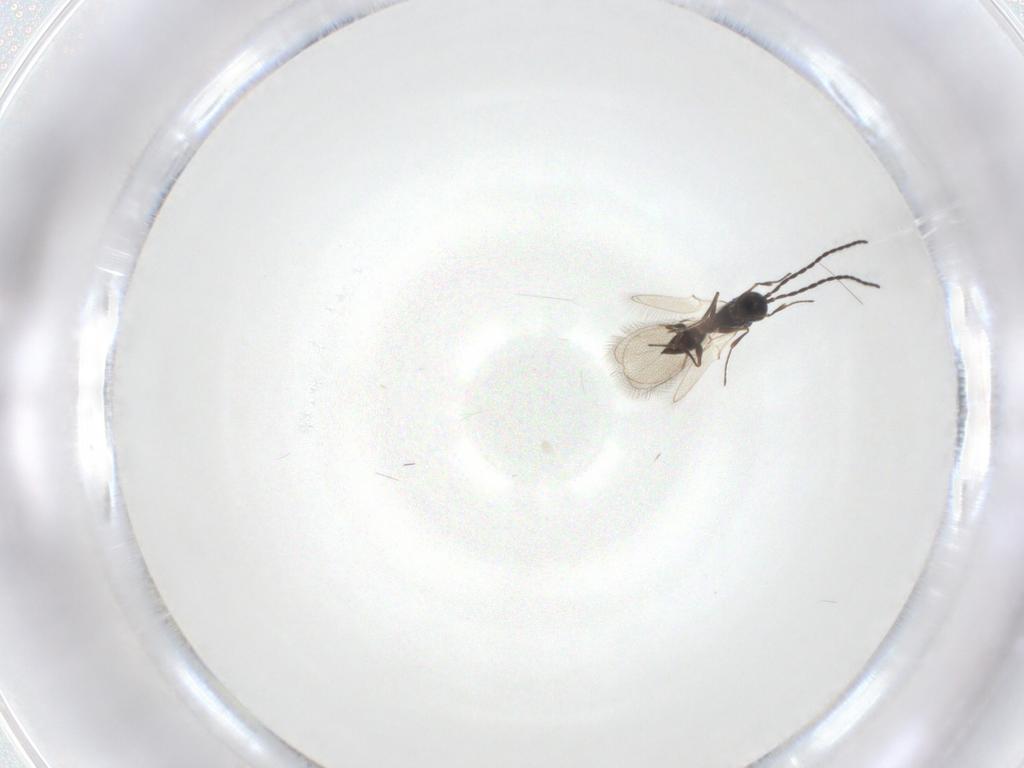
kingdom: Animalia
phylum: Arthropoda
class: Insecta
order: Hymenoptera
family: Figitidae
